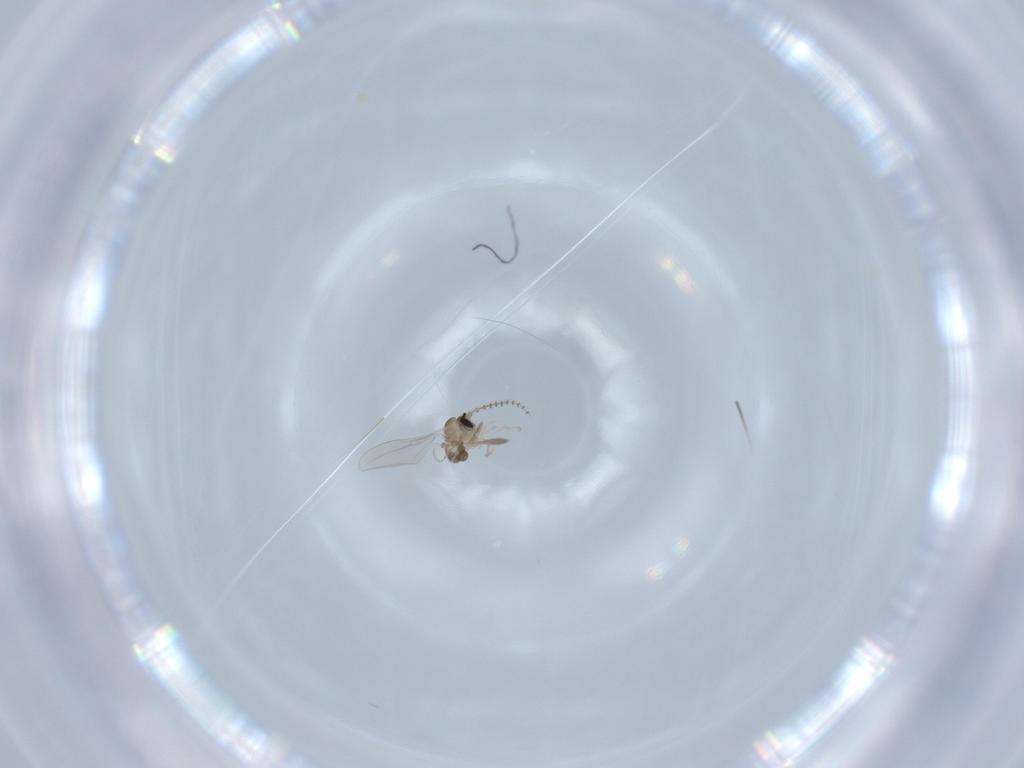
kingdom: Animalia
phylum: Arthropoda
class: Insecta
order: Diptera
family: Cecidomyiidae
